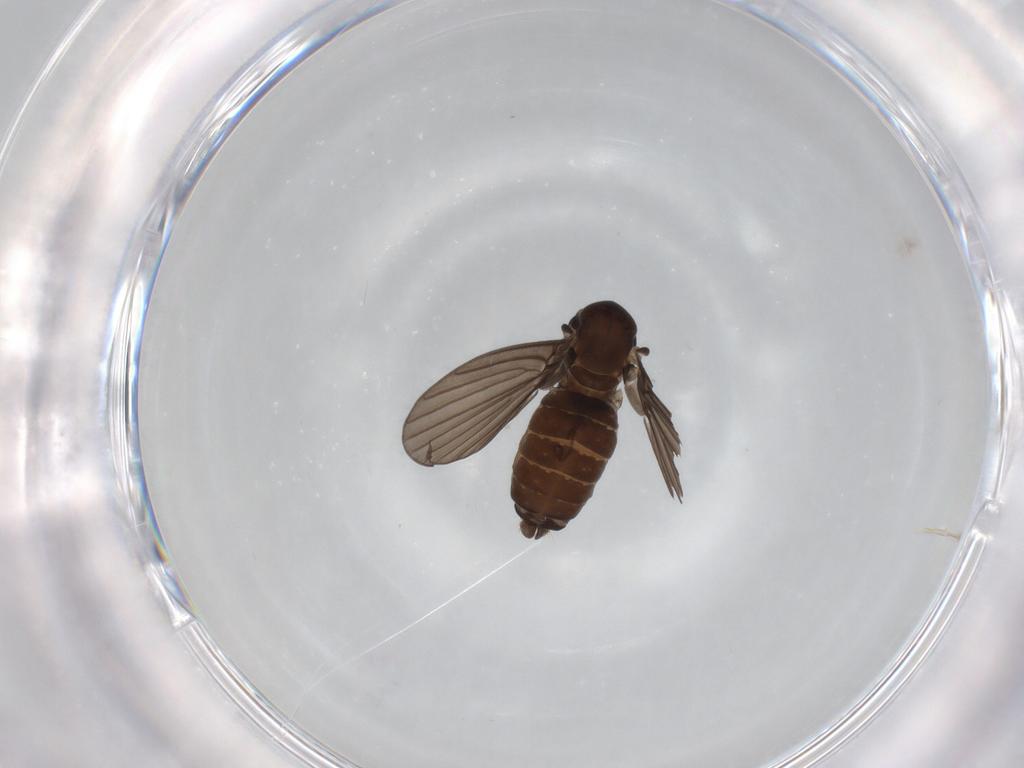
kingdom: Animalia
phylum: Arthropoda
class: Insecta
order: Diptera
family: Psychodidae
